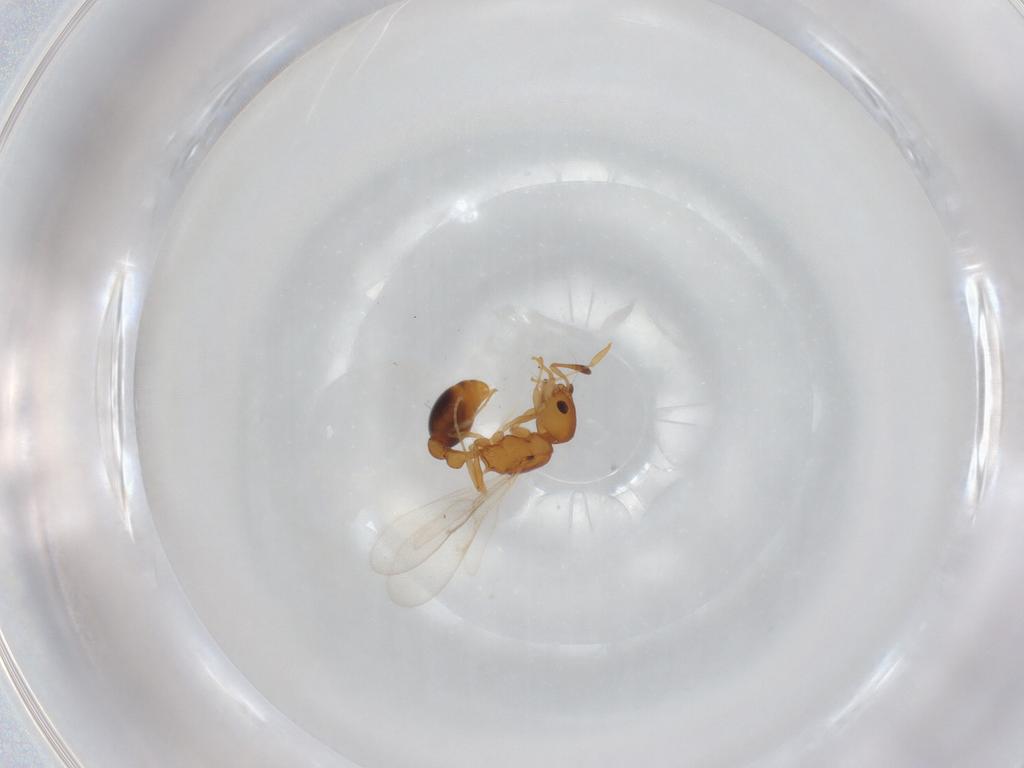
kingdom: Animalia
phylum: Arthropoda
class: Insecta
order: Hymenoptera
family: Formicidae
